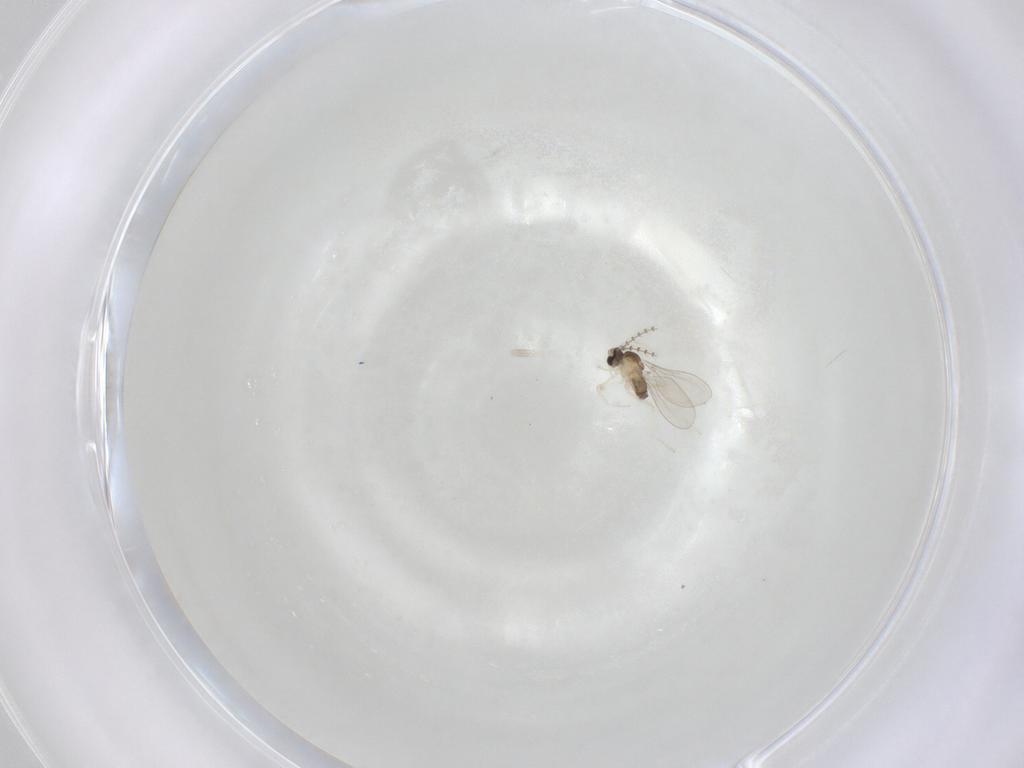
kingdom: Animalia
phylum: Arthropoda
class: Insecta
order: Diptera
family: Cecidomyiidae
